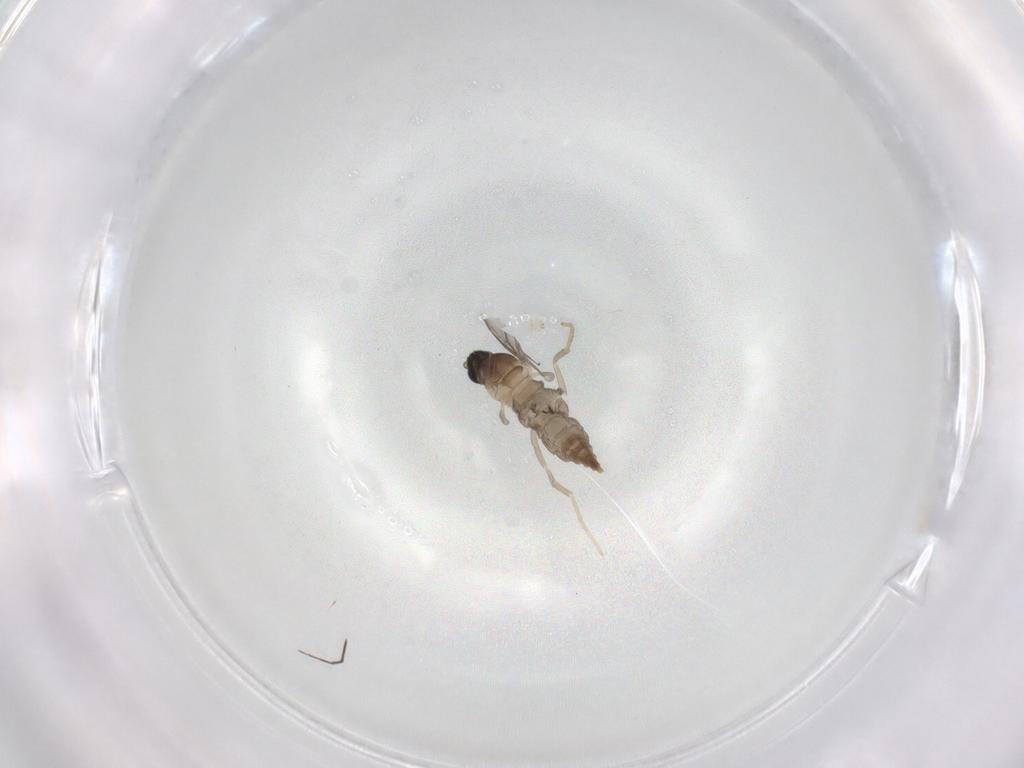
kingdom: Animalia
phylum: Arthropoda
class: Insecta
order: Diptera
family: Cecidomyiidae
